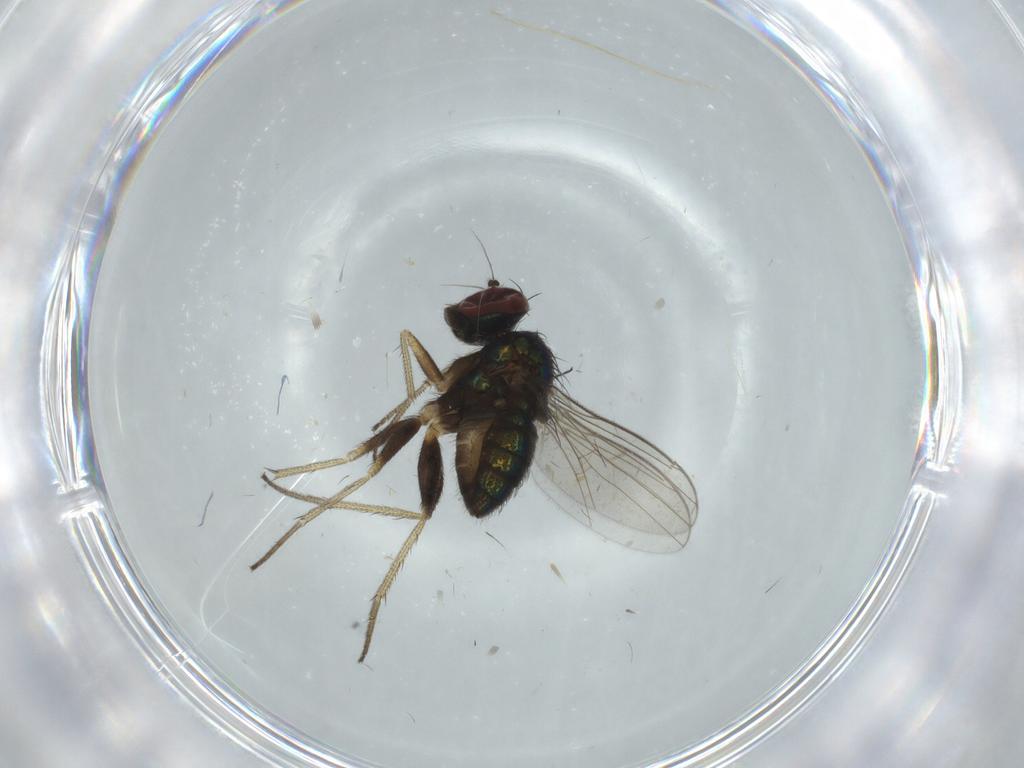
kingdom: Animalia
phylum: Arthropoda
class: Insecta
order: Diptera
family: Dolichopodidae
